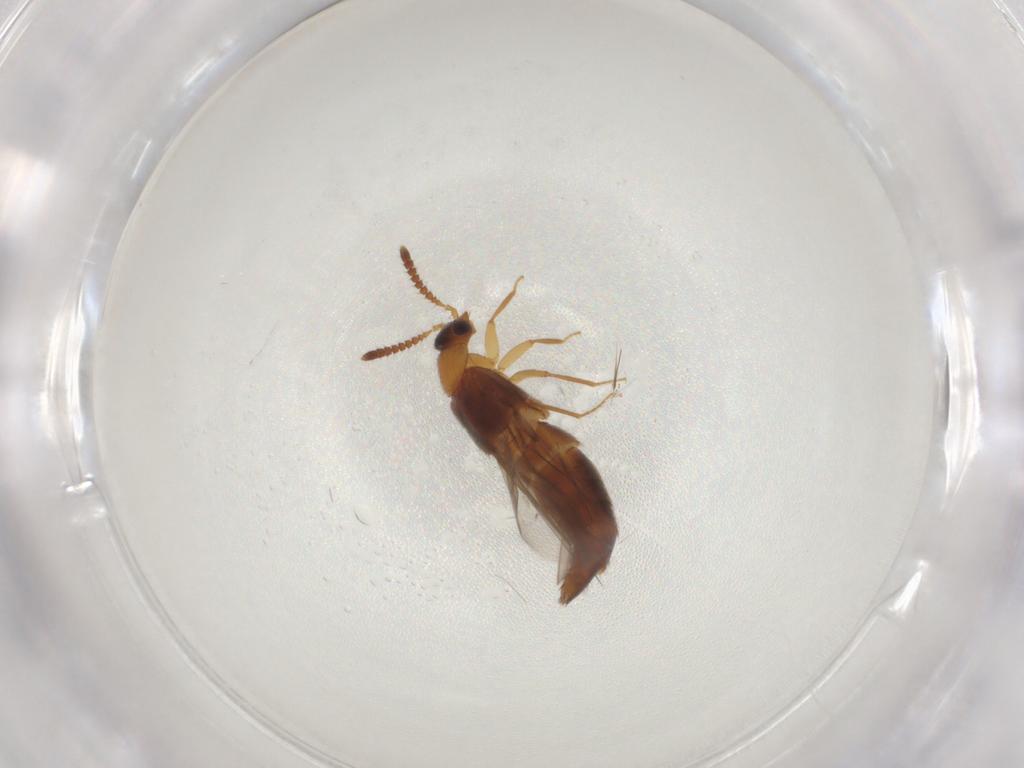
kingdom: Animalia
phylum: Arthropoda
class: Insecta
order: Coleoptera
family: Staphylinidae
